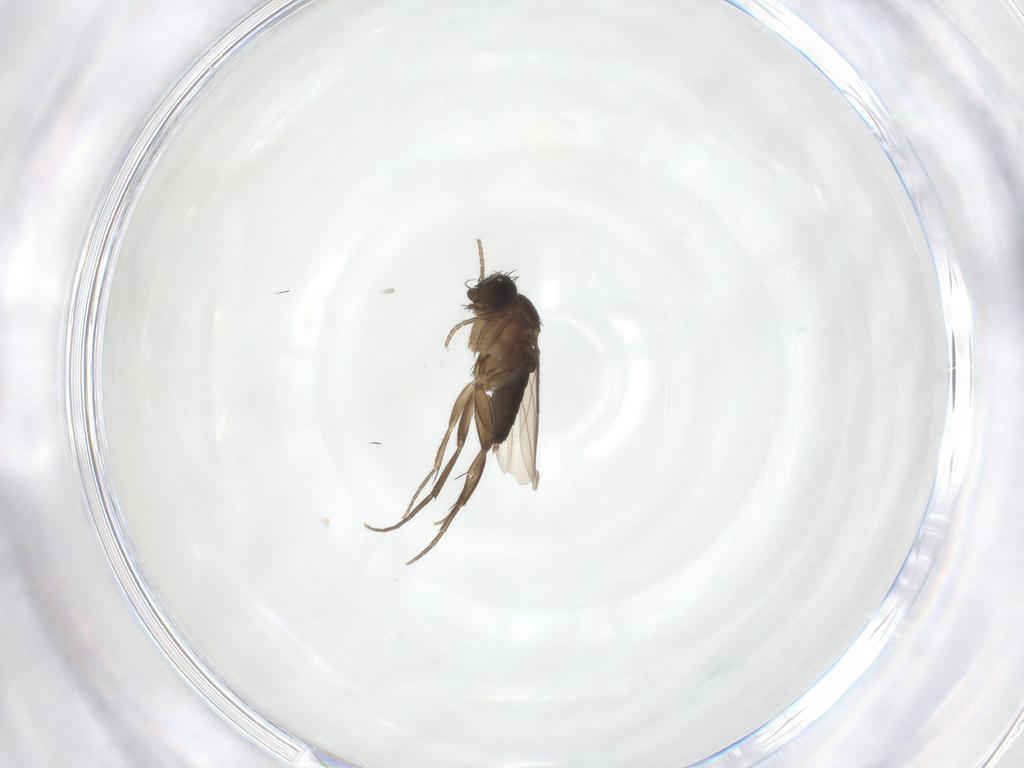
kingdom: Animalia
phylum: Arthropoda
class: Insecta
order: Diptera
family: Phoridae
